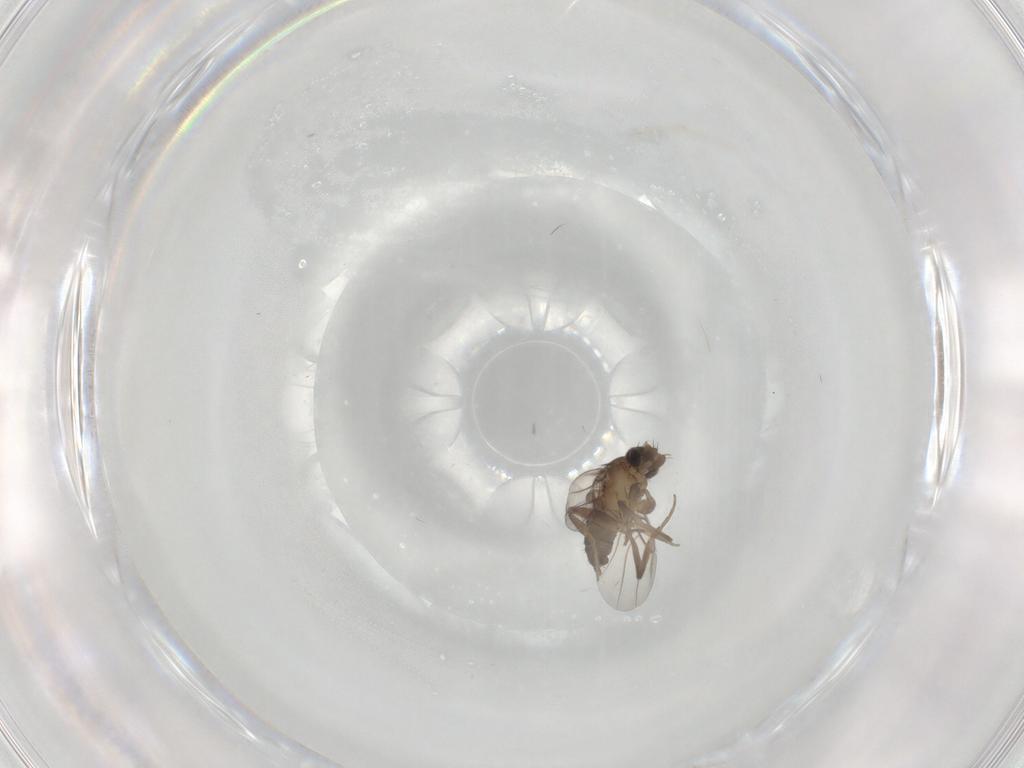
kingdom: Animalia
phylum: Arthropoda
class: Insecta
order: Diptera
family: Phoridae
